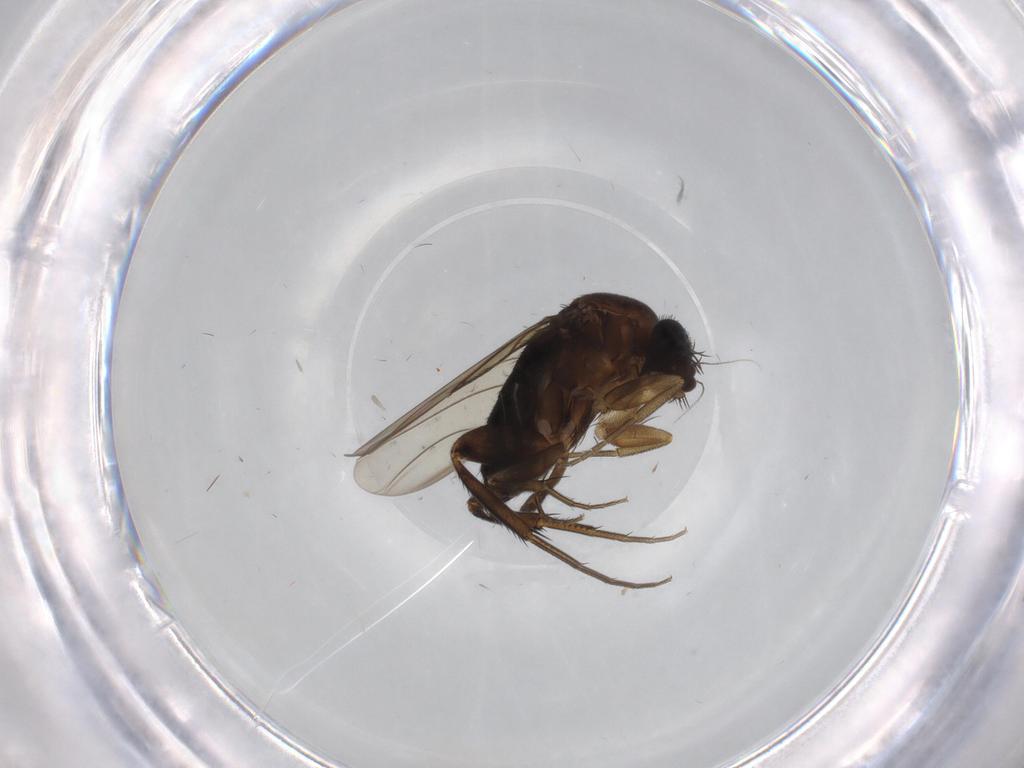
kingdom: Animalia
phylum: Arthropoda
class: Insecta
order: Diptera
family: Phoridae
